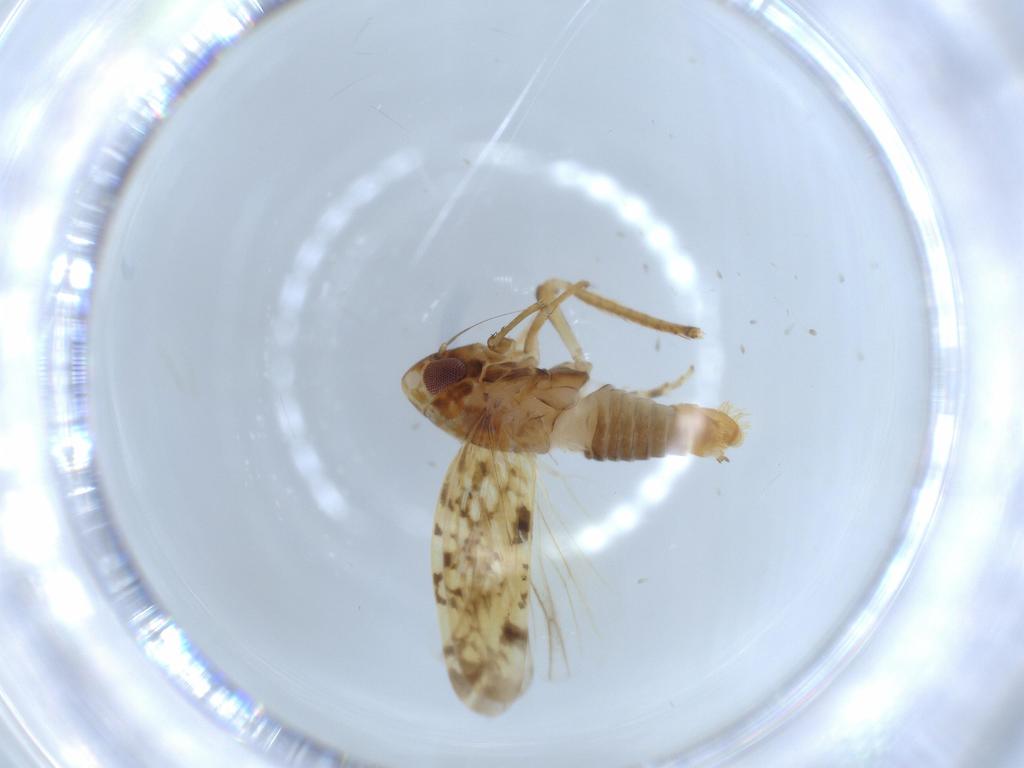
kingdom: Animalia
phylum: Arthropoda
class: Insecta
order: Hemiptera
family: Cicadellidae
